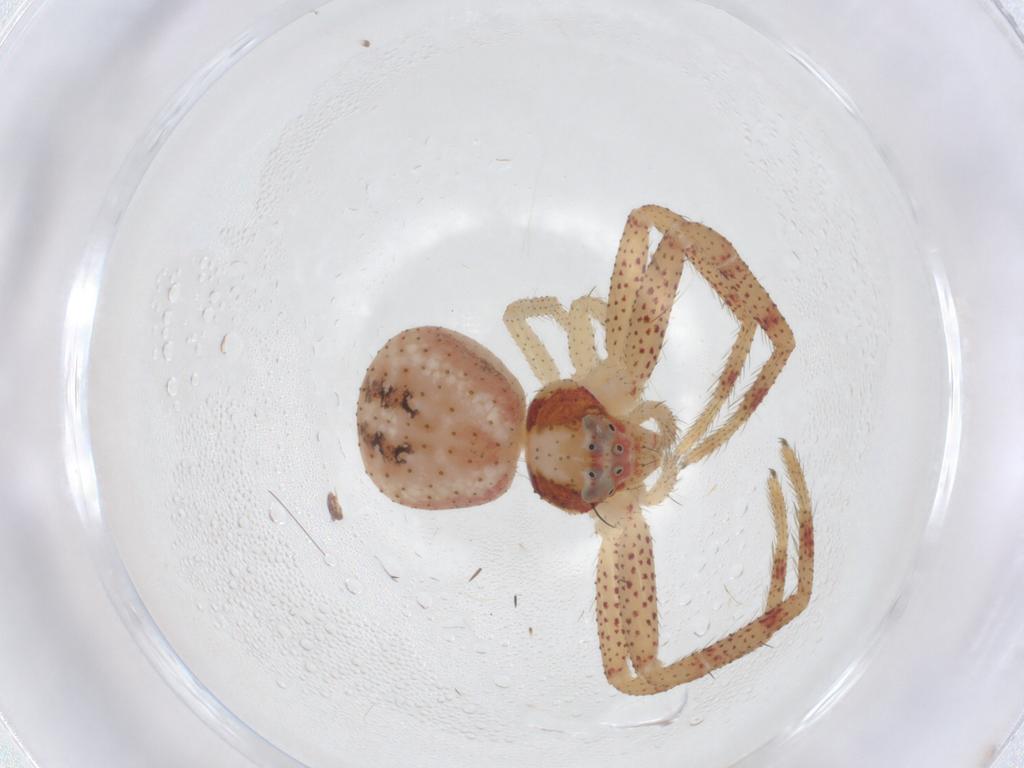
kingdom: Animalia
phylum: Arthropoda
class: Arachnida
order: Araneae
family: Thomisidae
